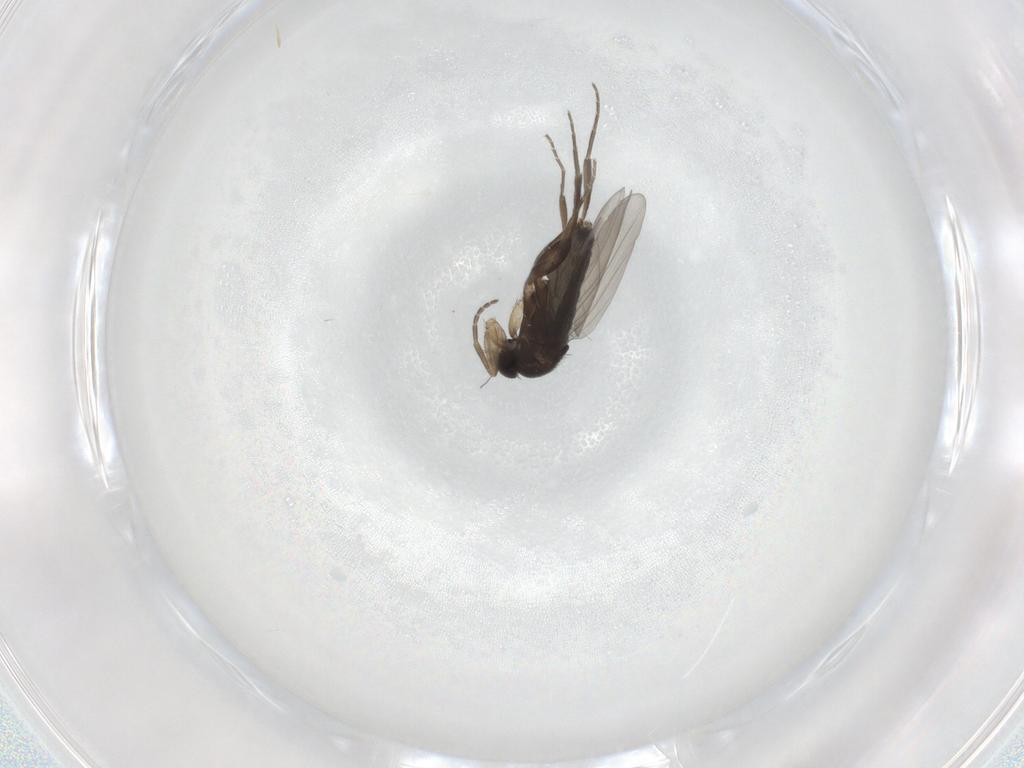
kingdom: Animalia
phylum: Arthropoda
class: Insecta
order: Diptera
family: Phoridae
